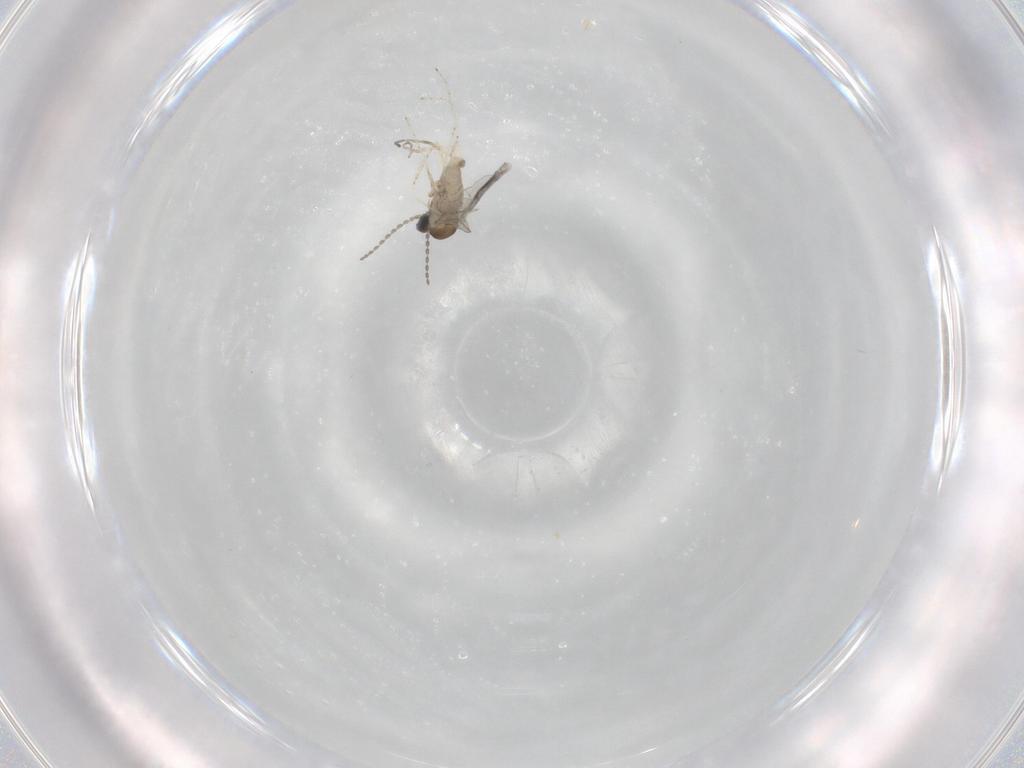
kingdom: Animalia
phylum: Arthropoda
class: Insecta
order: Diptera
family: Cecidomyiidae
